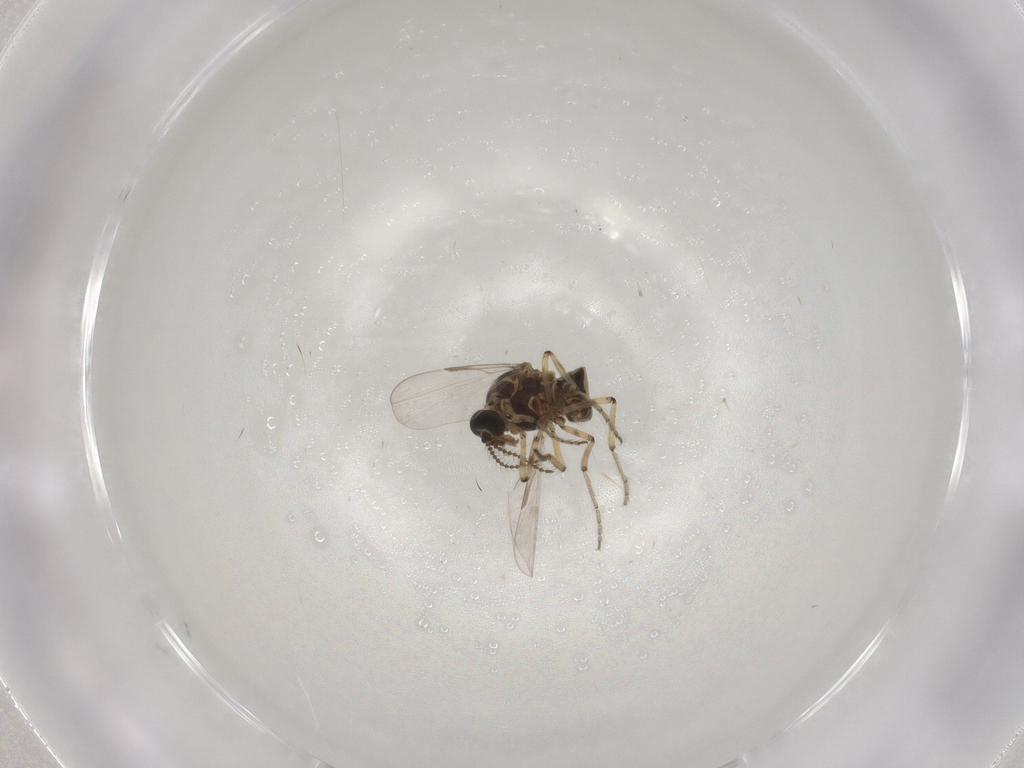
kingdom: Animalia
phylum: Arthropoda
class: Insecta
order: Diptera
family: Ceratopogonidae
